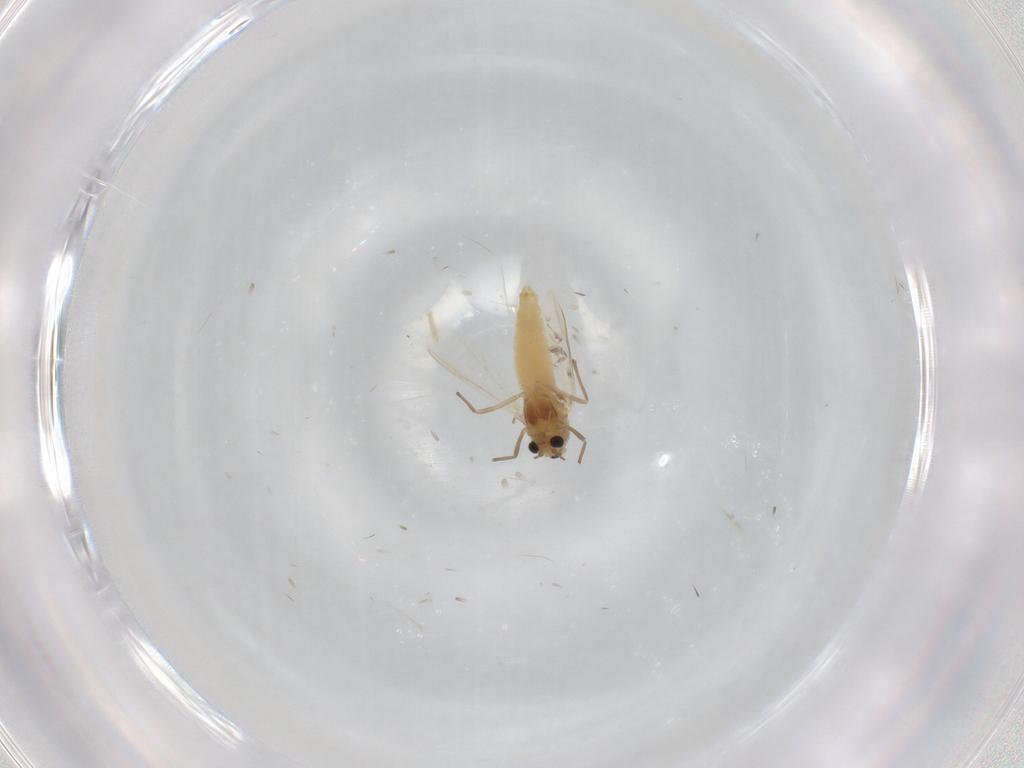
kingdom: Animalia
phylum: Arthropoda
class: Insecta
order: Diptera
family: Chironomidae
